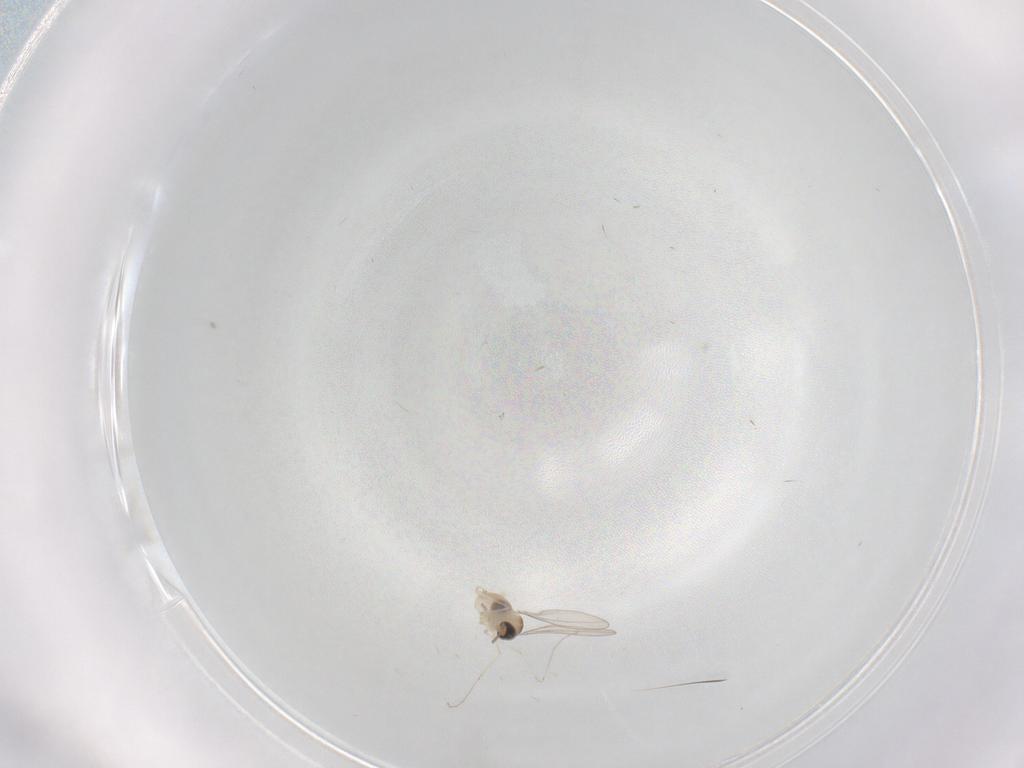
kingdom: Animalia
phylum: Arthropoda
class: Insecta
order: Diptera
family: Cecidomyiidae
